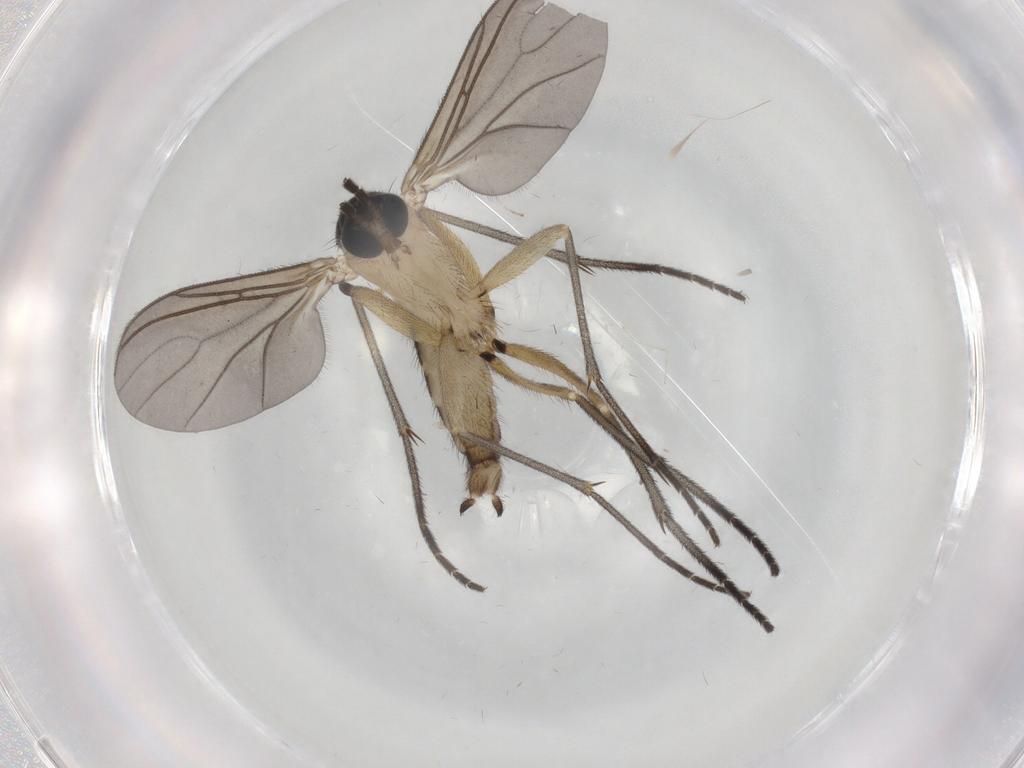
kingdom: Animalia
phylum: Arthropoda
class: Insecta
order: Diptera
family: Sciaridae
